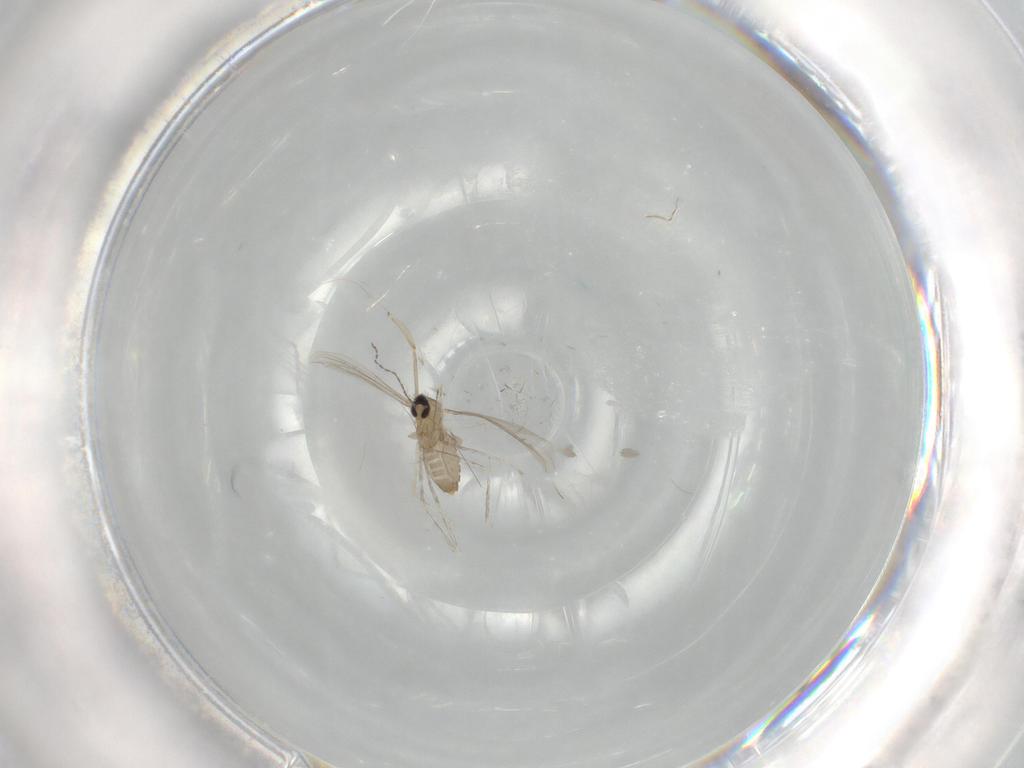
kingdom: Animalia
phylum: Arthropoda
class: Insecta
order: Diptera
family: Cecidomyiidae
